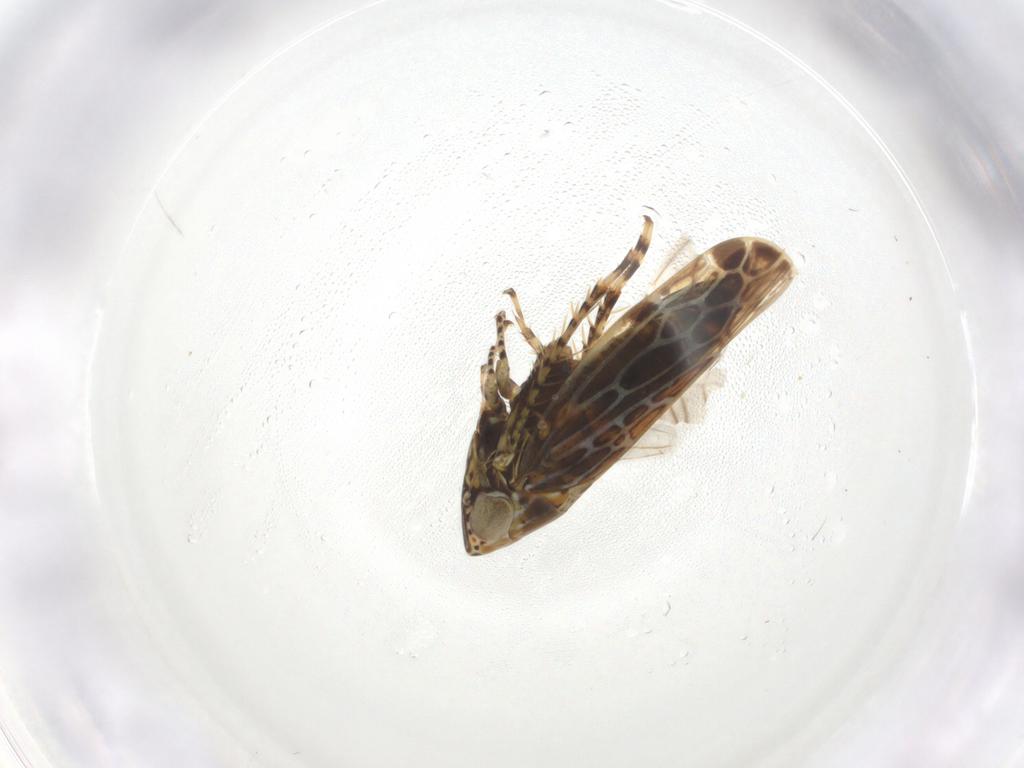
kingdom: Animalia
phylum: Arthropoda
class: Insecta
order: Hemiptera
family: Cicadellidae
